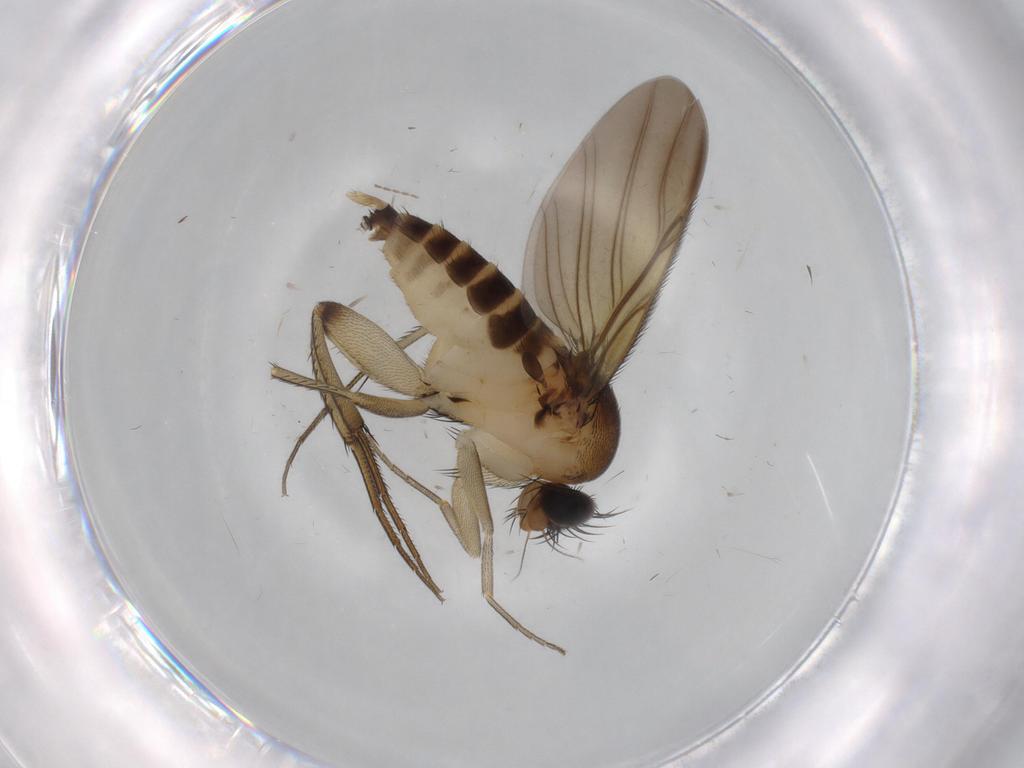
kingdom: Animalia
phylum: Arthropoda
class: Insecta
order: Diptera
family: Phoridae
